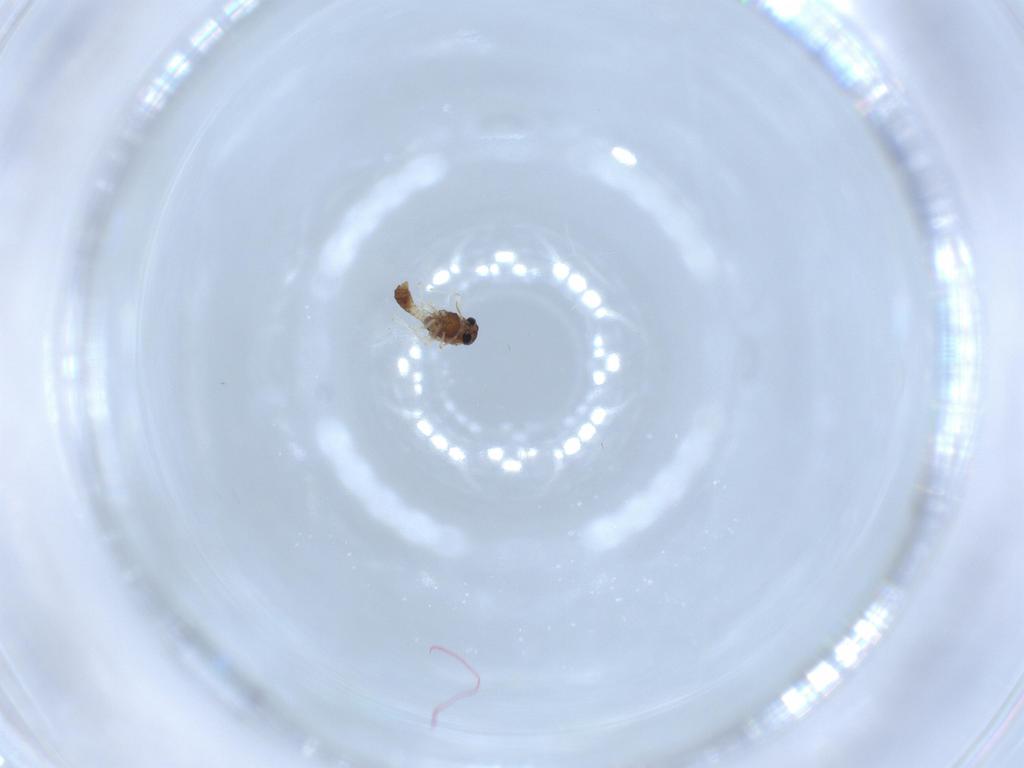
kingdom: Animalia
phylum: Arthropoda
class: Insecta
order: Diptera
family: Chironomidae
